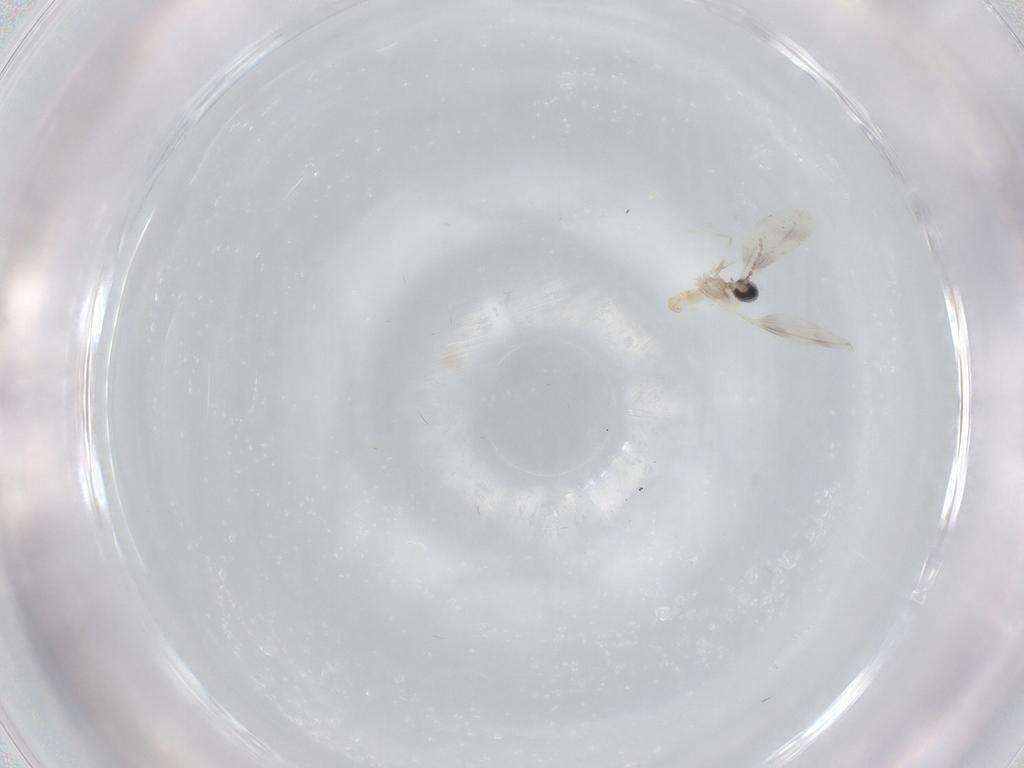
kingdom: Animalia
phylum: Arthropoda
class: Insecta
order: Diptera
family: Cecidomyiidae
